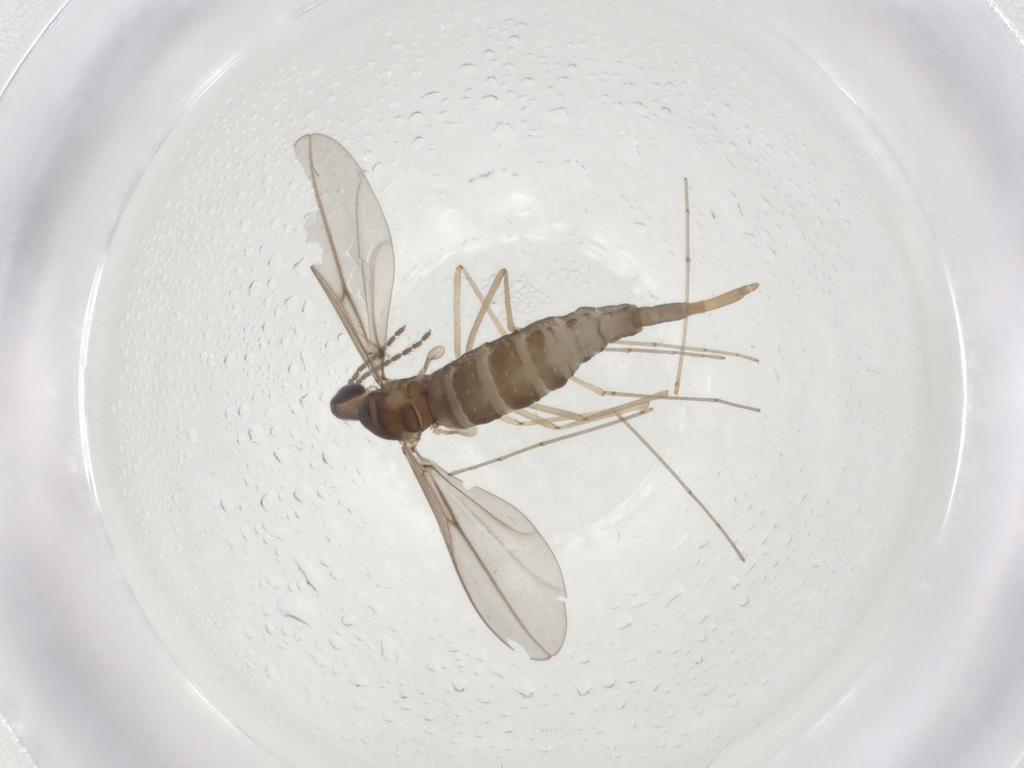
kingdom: Animalia
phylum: Arthropoda
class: Insecta
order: Diptera
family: Cecidomyiidae
